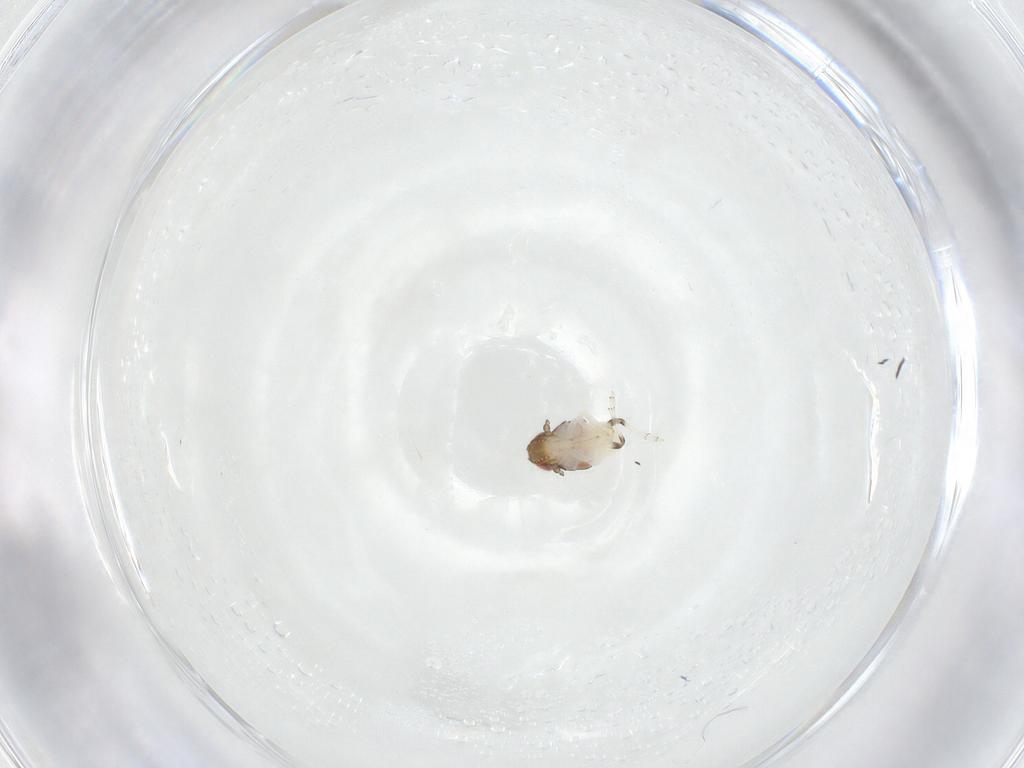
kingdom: Animalia
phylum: Arthropoda
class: Insecta
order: Hemiptera
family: Nogodinidae
